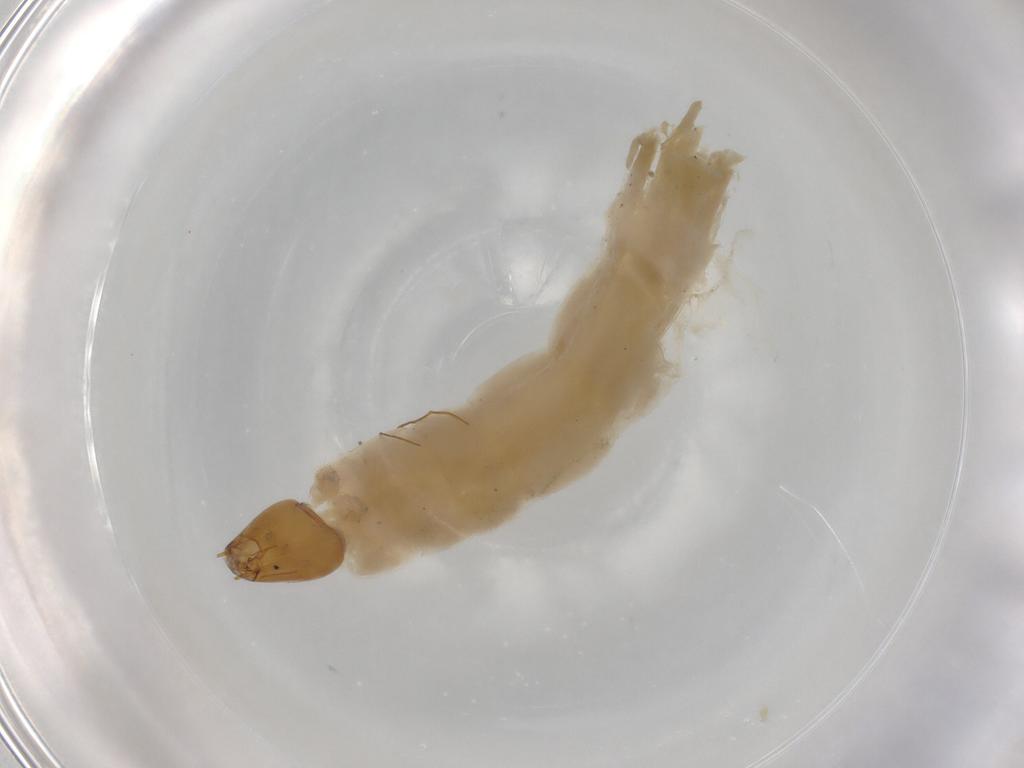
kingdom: Animalia
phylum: Arthropoda
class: Insecta
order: Diptera
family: Chironomidae
